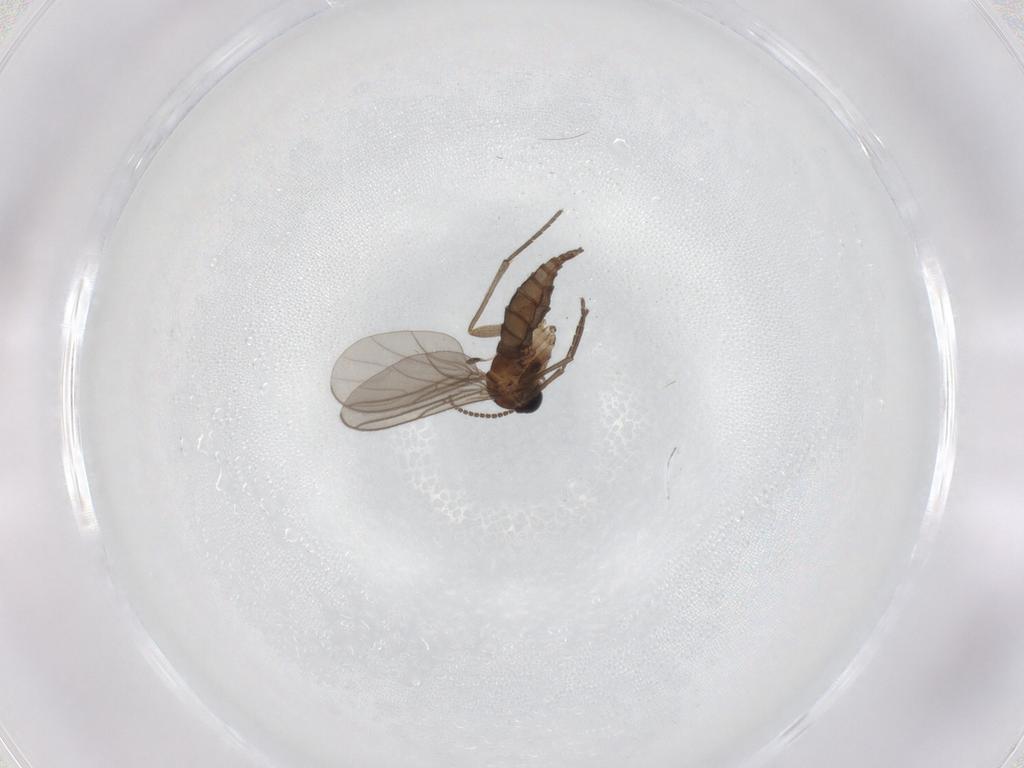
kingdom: Animalia
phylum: Arthropoda
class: Insecta
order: Diptera
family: Sciaridae
